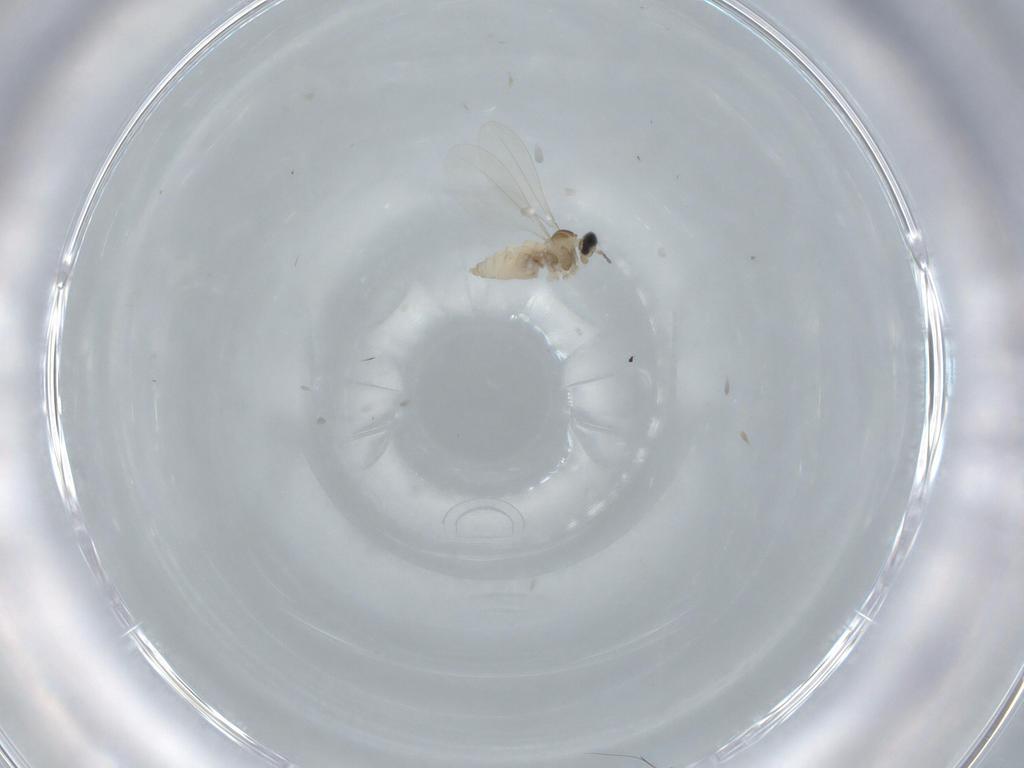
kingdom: Animalia
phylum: Arthropoda
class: Insecta
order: Diptera
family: Cecidomyiidae
